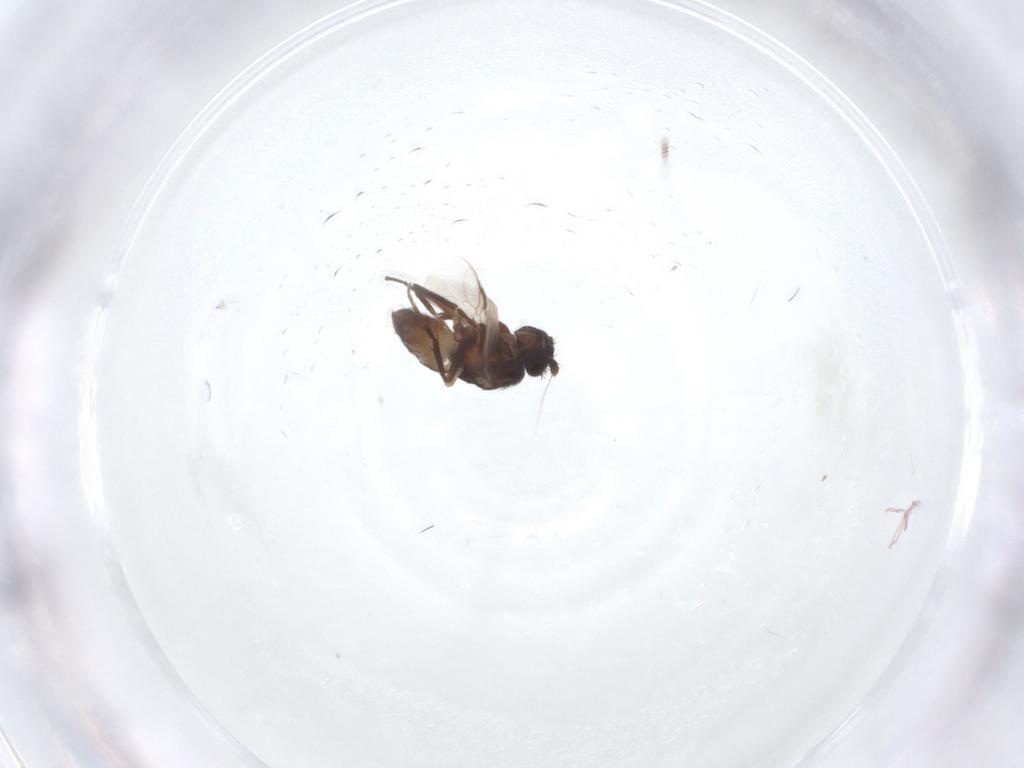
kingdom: Animalia
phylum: Arthropoda
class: Insecta
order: Diptera
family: Sphaeroceridae
